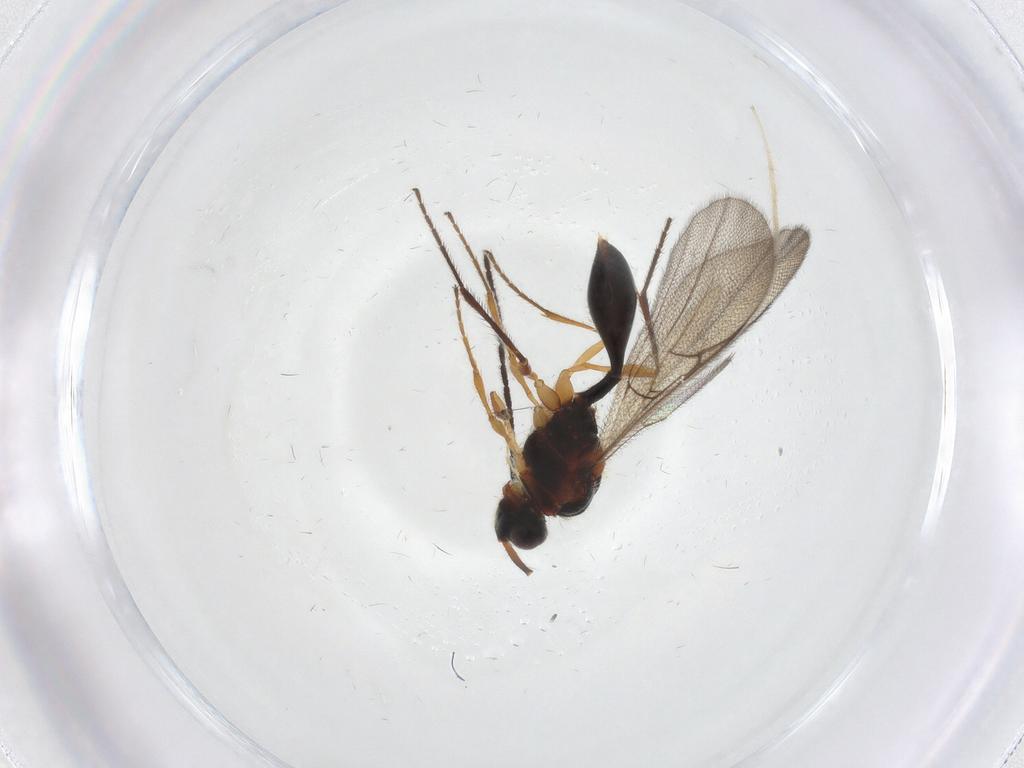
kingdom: Animalia
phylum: Arthropoda
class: Insecta
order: Hymenoptera
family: Diapriidae
